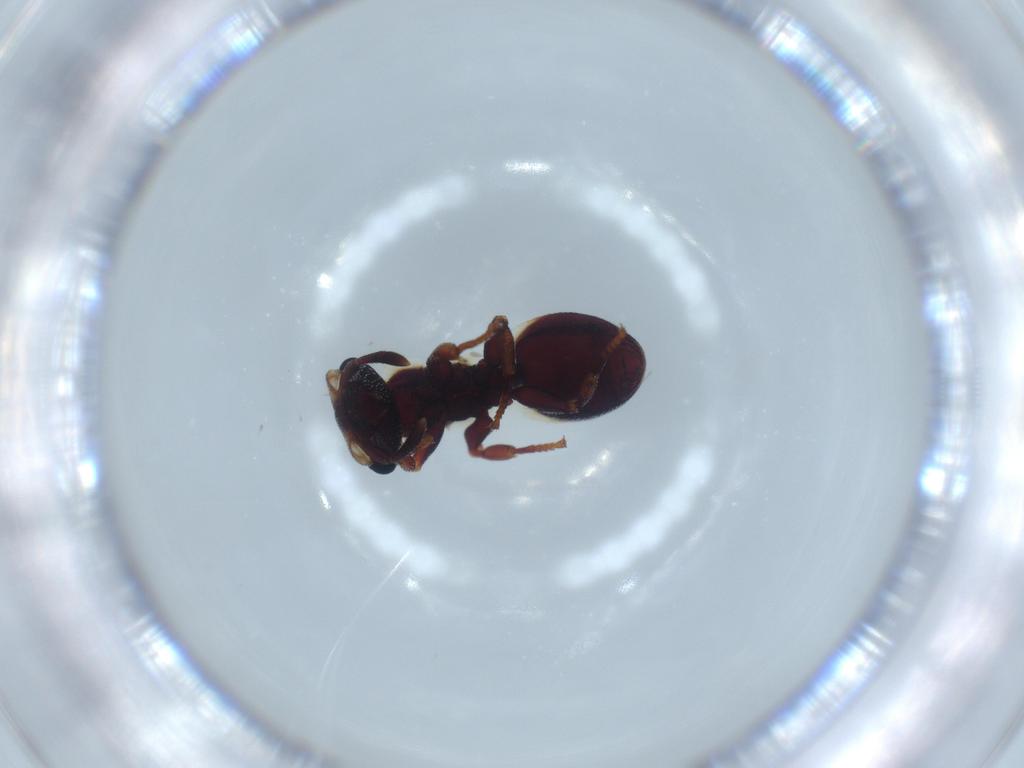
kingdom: Animalia
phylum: Arthropoda
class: Insecta
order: Hymenoptera
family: Formicidae
